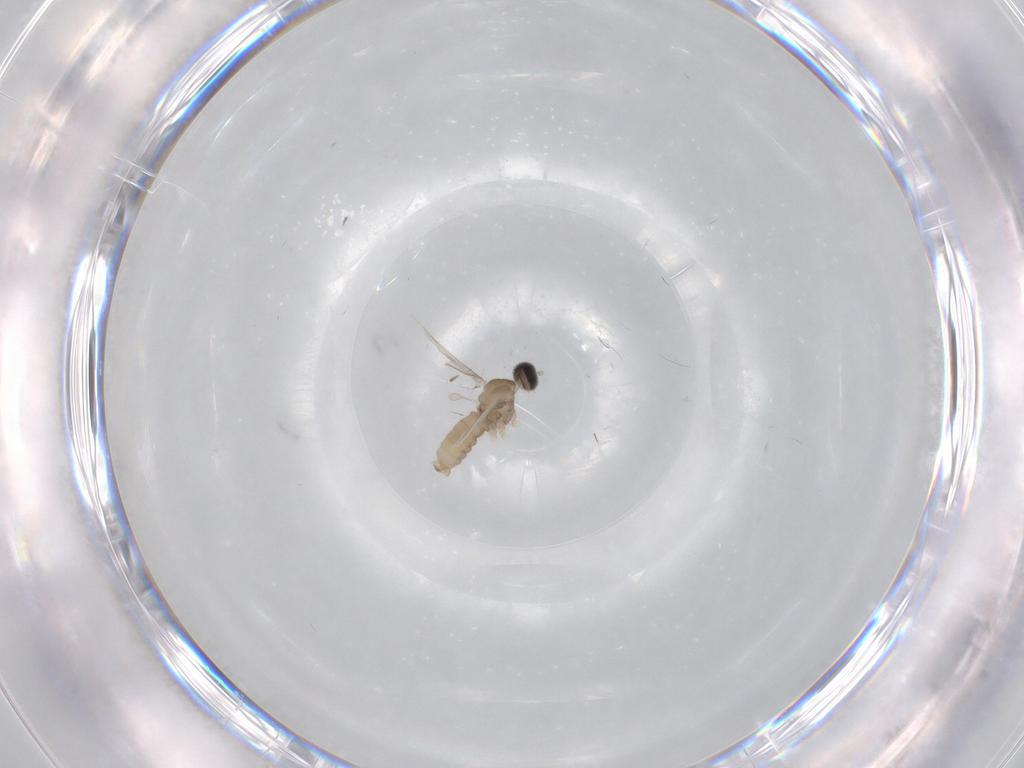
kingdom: Animalia
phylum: Arthropoda
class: Insecta
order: Diptera
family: Cecidomyiidae
